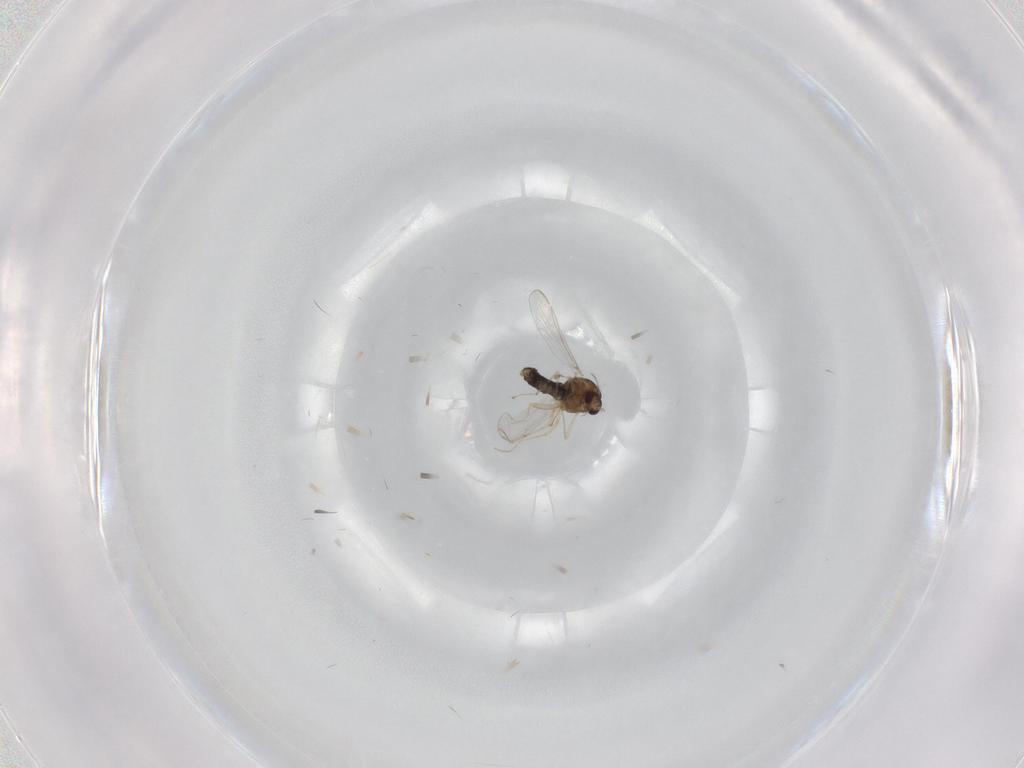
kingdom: Animalia
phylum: Arthropoda
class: Insecta
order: Diptera
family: Chironomidae
